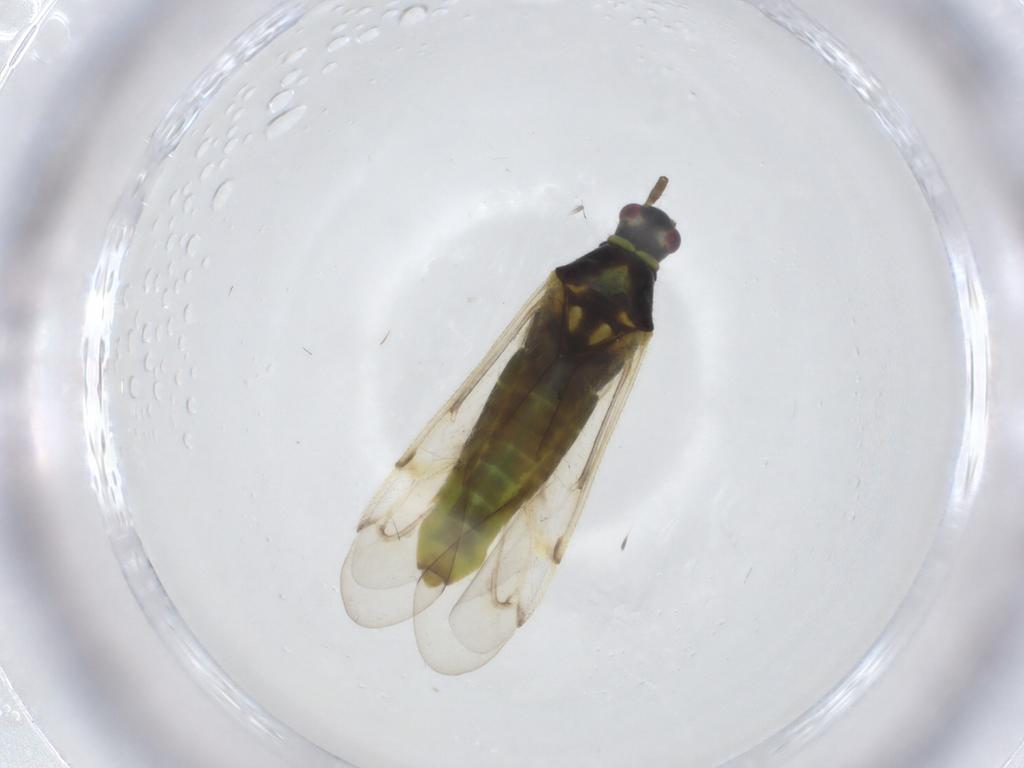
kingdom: Animalia
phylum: Arthropoda
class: Insecta
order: Hemiptera
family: Miridae
